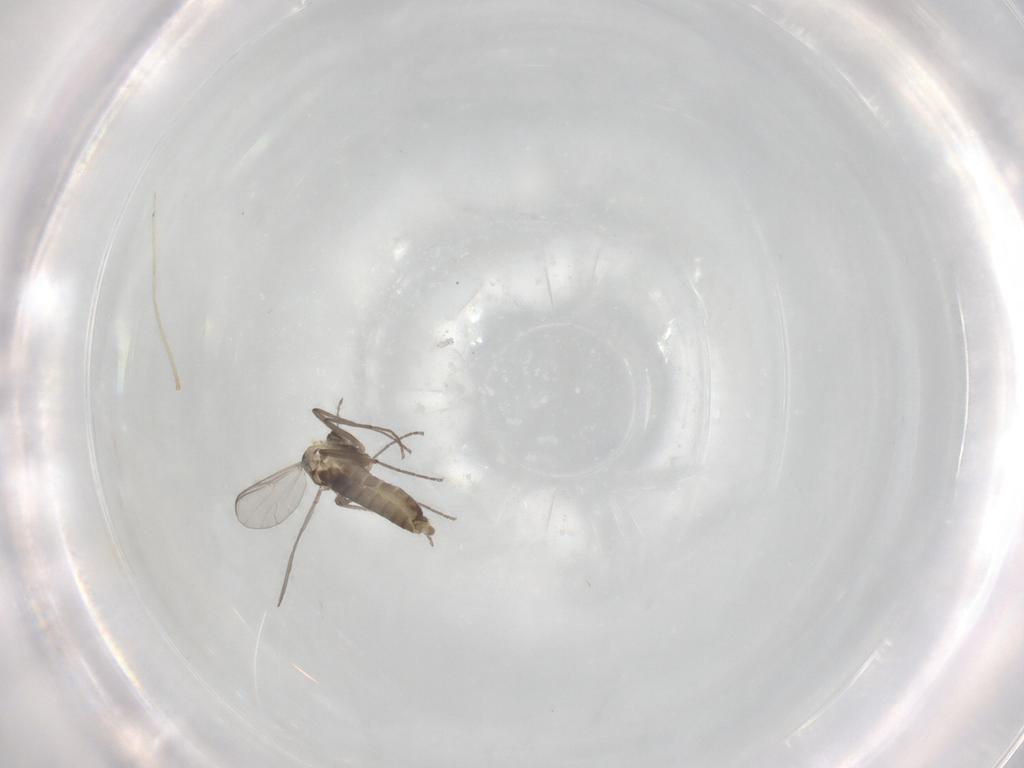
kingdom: Animalia
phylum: Arthropoda
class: Insecta
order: Diptera
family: Chironomidae
